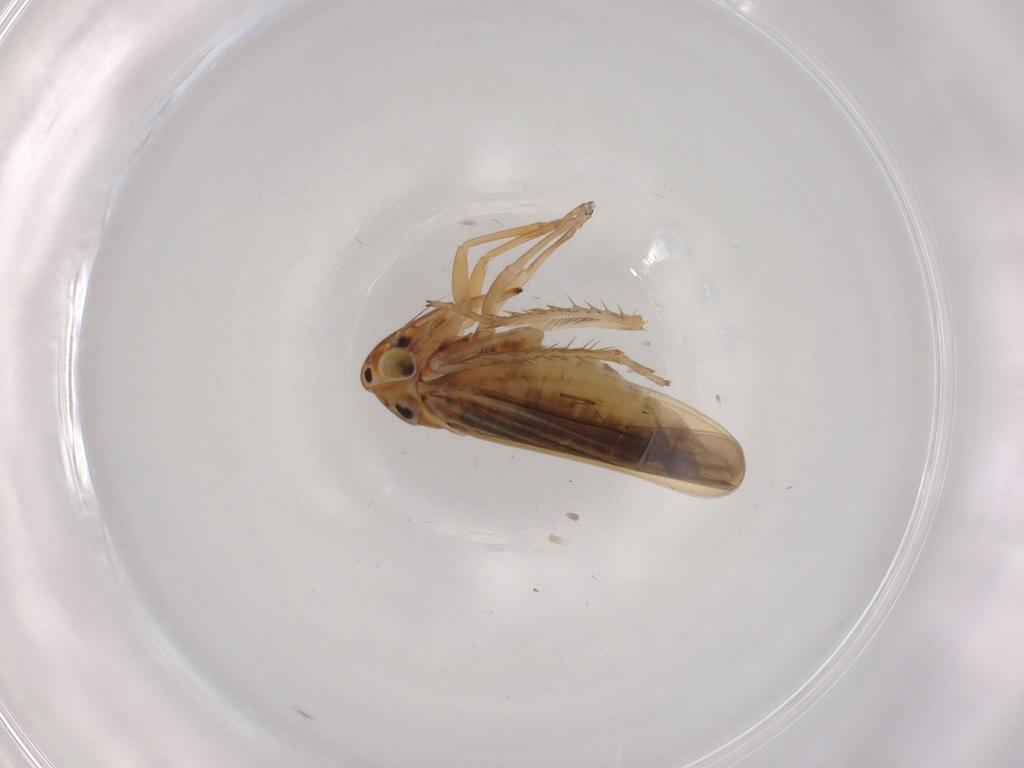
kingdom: Animalia
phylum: Arthropoda
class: Insecta
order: Hemiptera
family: Cicadellidae
